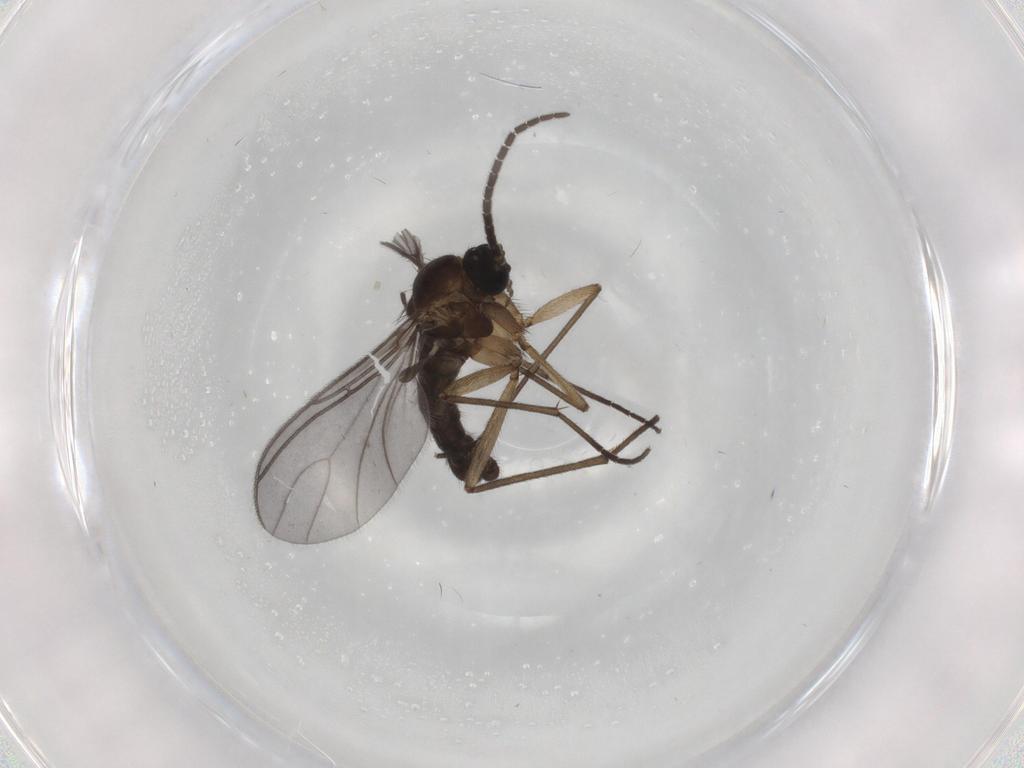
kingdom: Animalia
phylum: Arthropoda
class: Insecta
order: Diptera
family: Sciaridae
